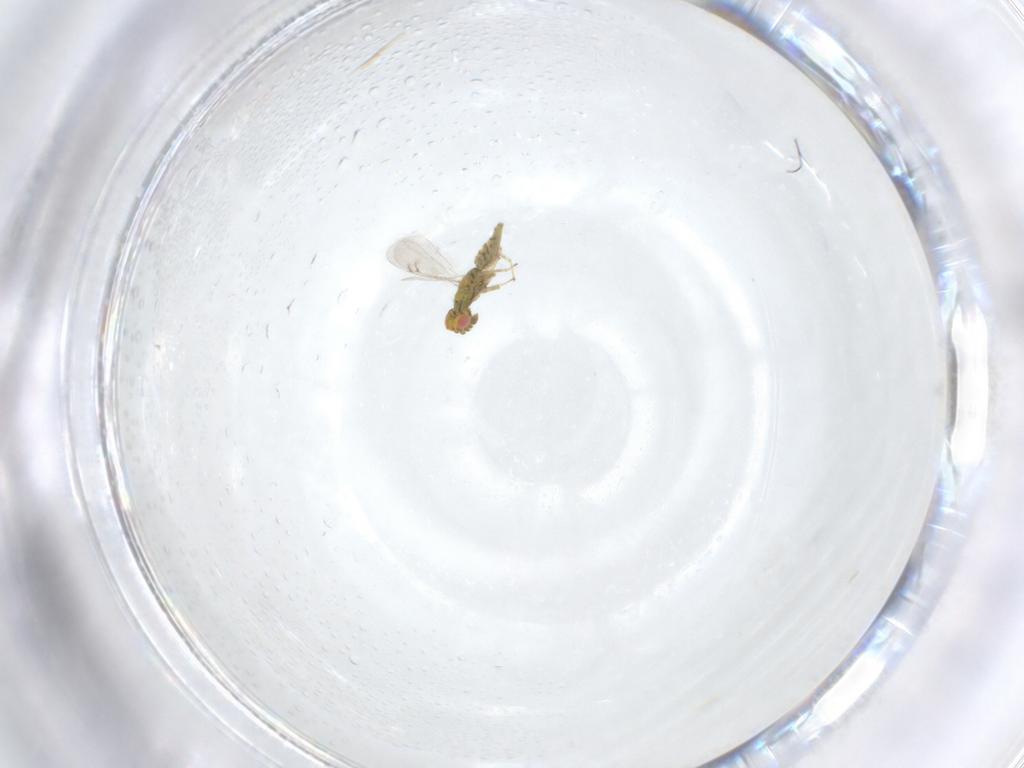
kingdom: Animalia
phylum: Arthropoda
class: Insecta
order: Hymenoptera
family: Eulophidae
